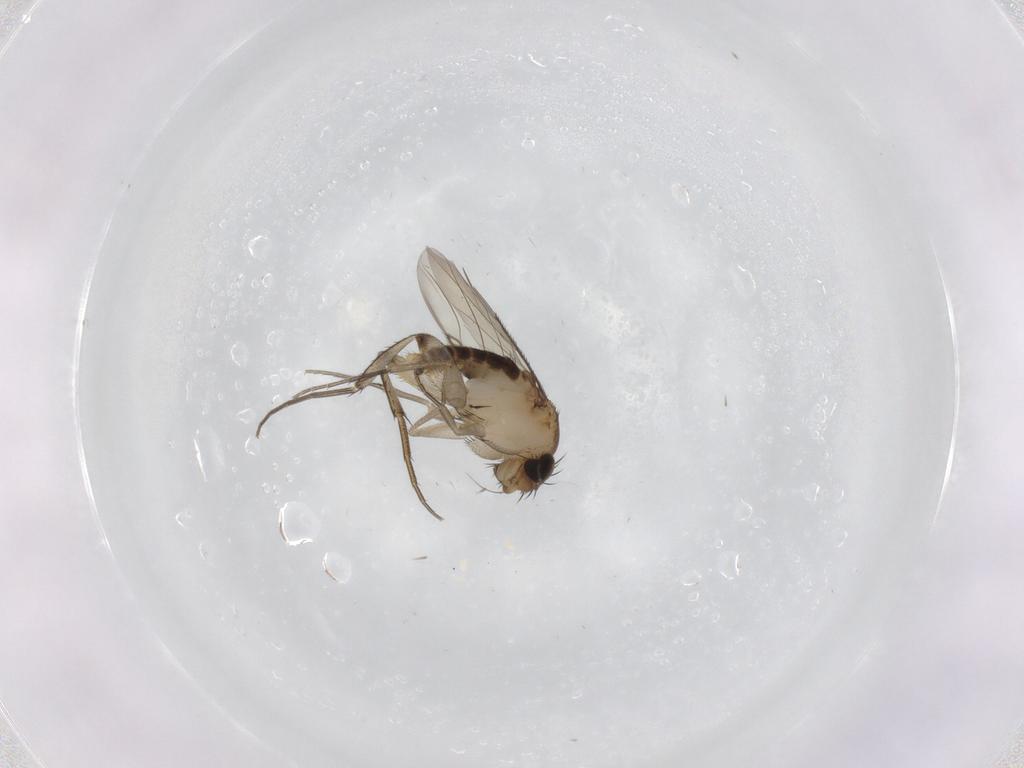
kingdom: Animalia
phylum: Arthropoda
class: Insecta
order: Diptera
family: Phoridae
